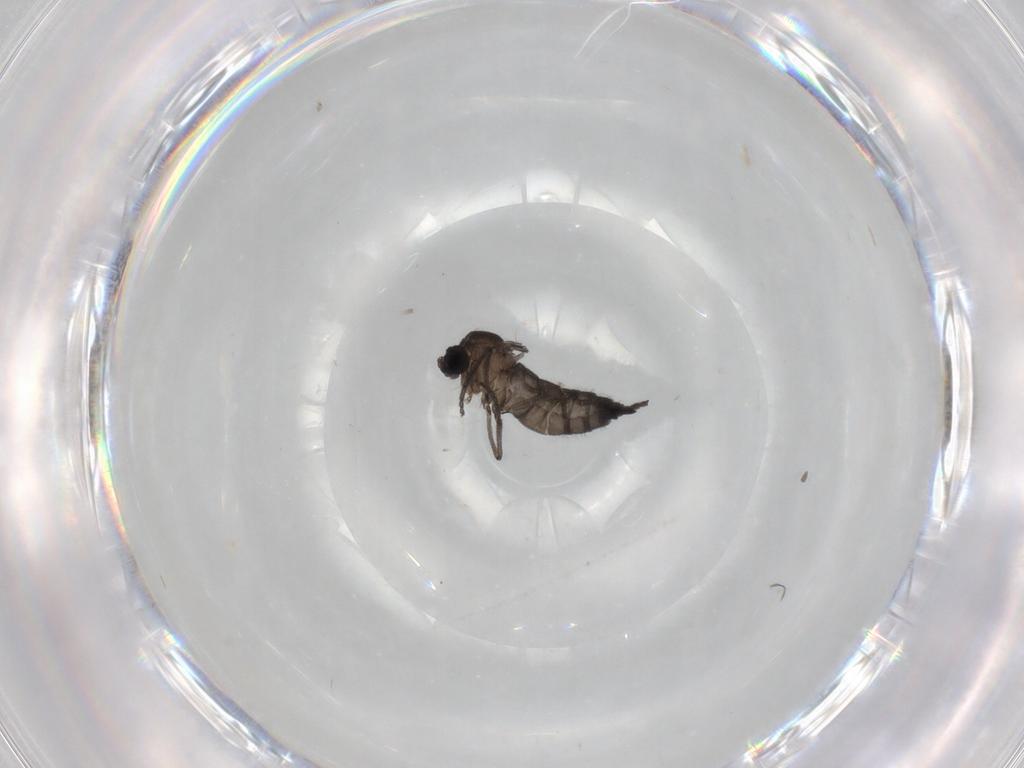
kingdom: Animalia
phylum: Arthropoda
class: Insecta
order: Diptera
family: Sciaridae
